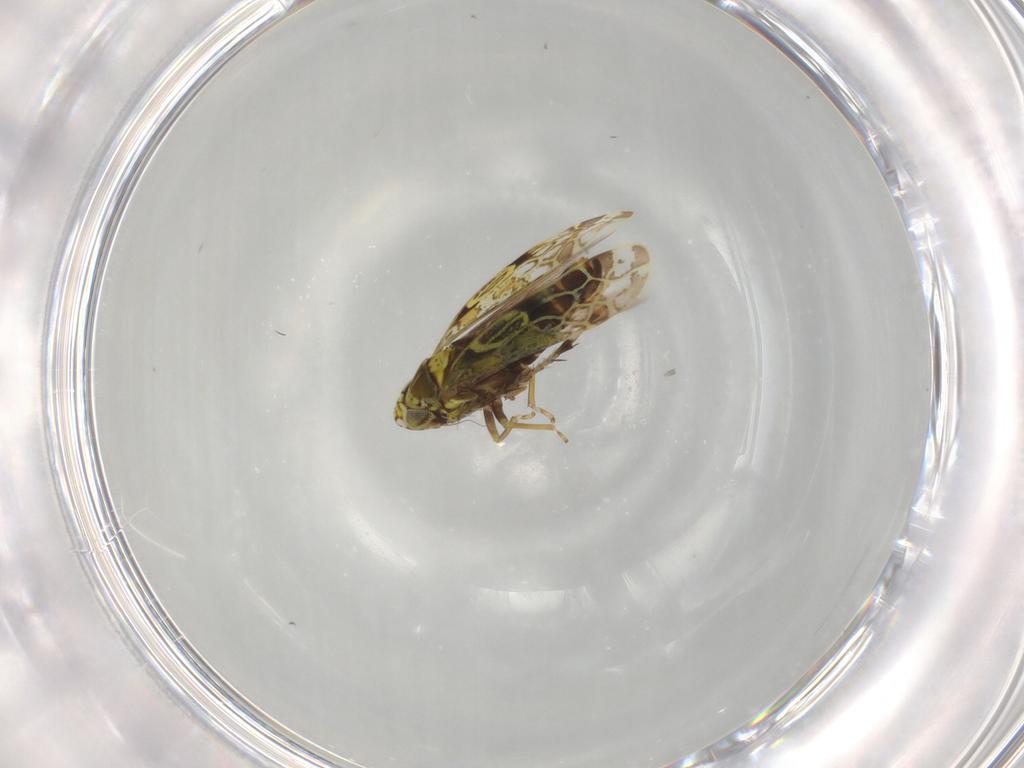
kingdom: Animalia
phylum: Arthropoda
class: Insecta
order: Hemiptera
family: Cicadellidae
